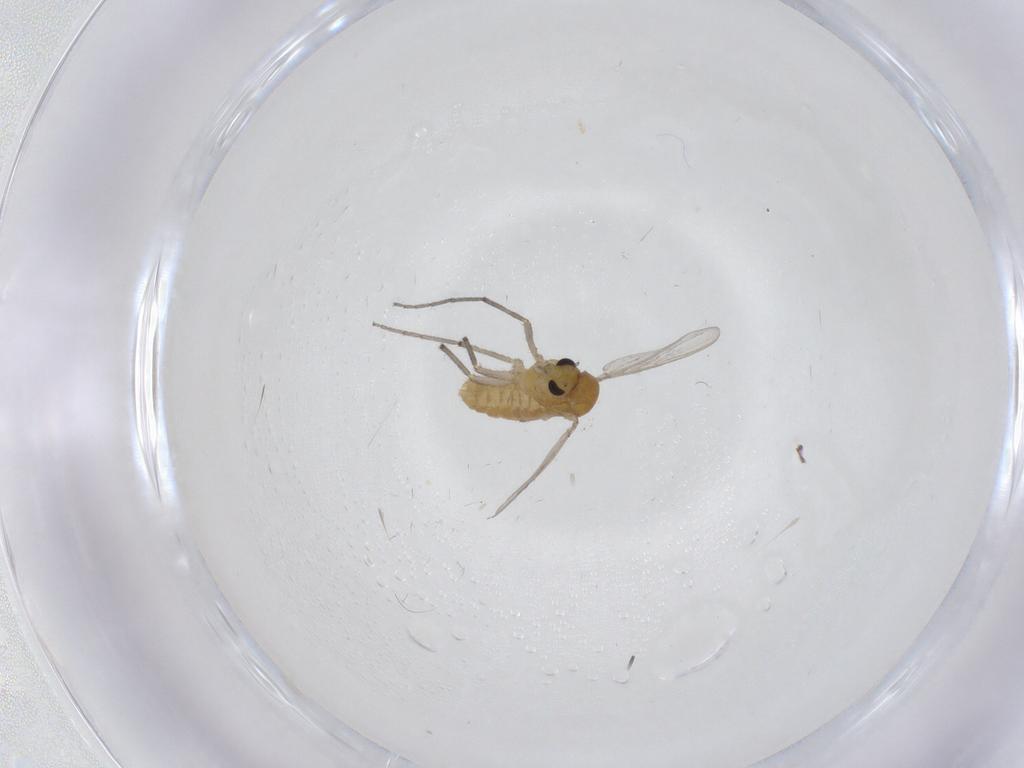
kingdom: Animalia
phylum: Arthropoda
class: Insecta
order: Diptera
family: Chironomidae
